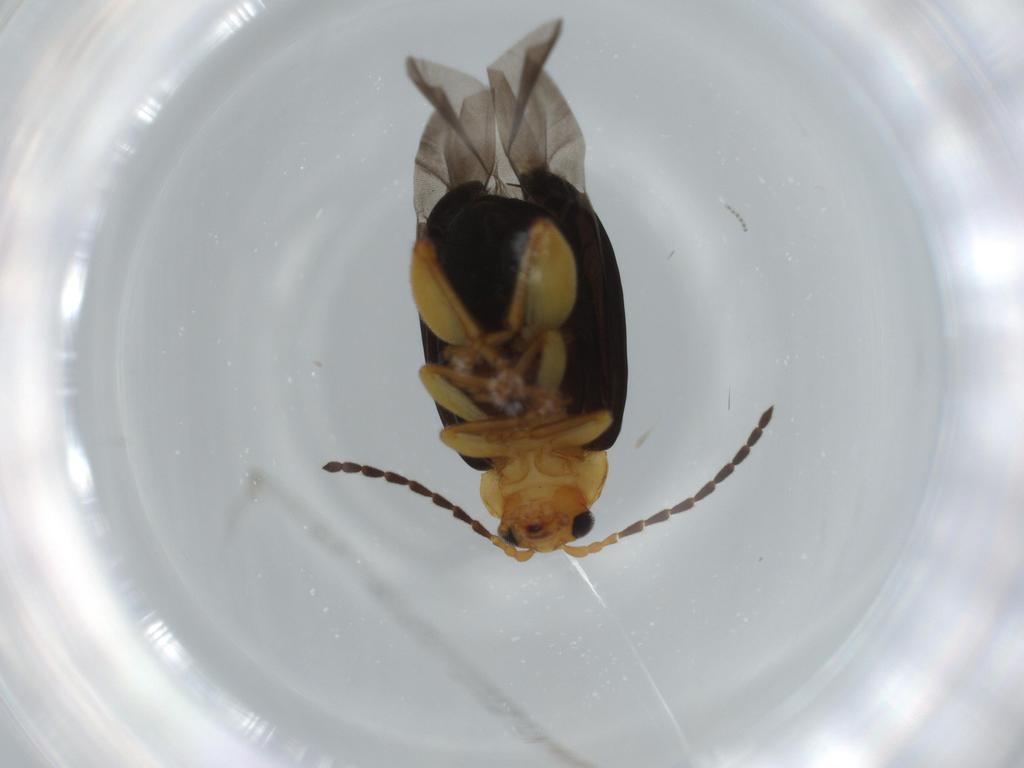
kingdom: Animalia
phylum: Arthropoda
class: Insecta
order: Coleoptera
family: Chrysomelidae
